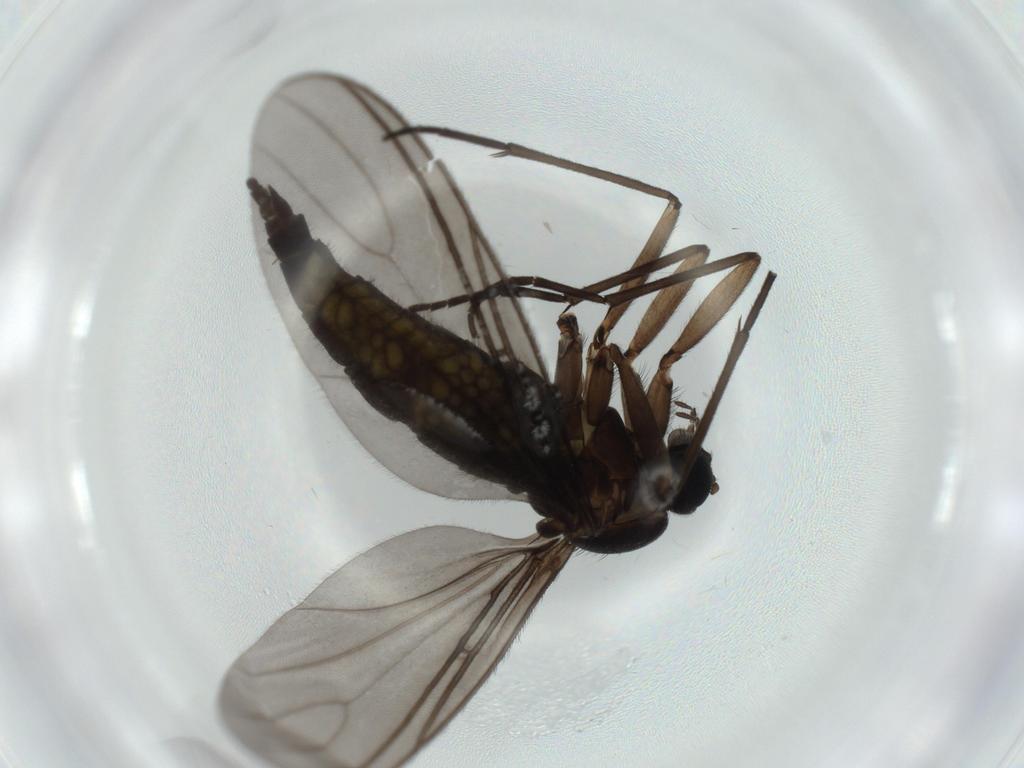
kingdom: Animalia
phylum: Arthropoda
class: Insecta
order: Diptera
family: Sciaridae
